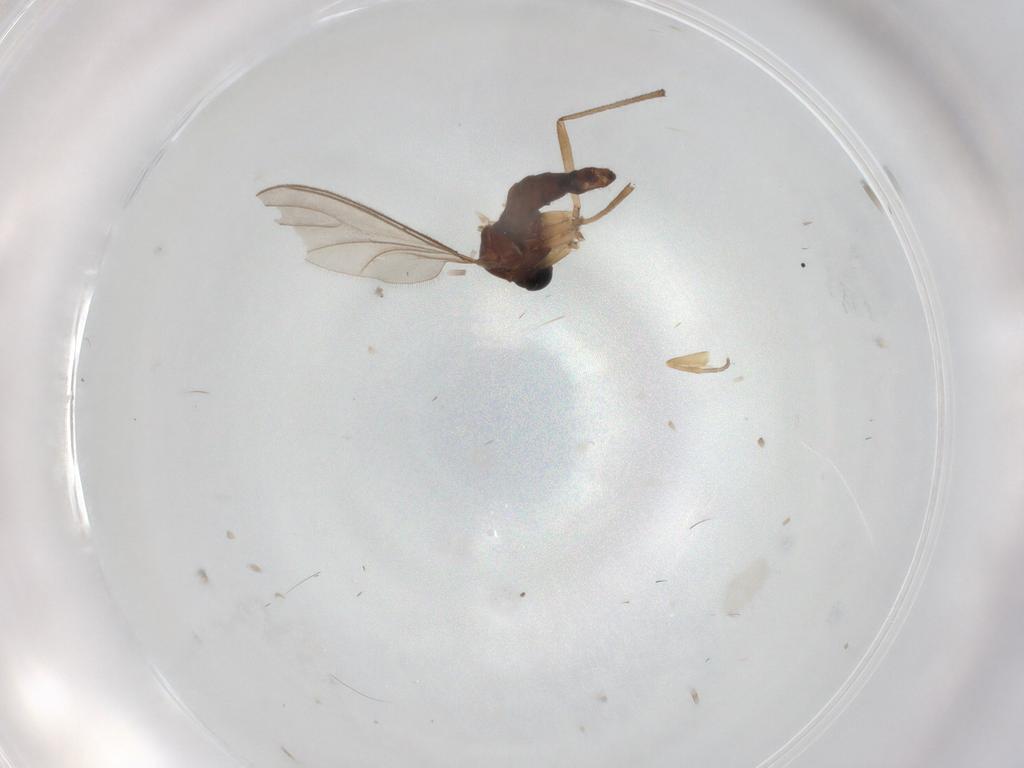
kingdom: Animalia
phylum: Arthropoda
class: Insecta
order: Diptera
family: Sciaridae
